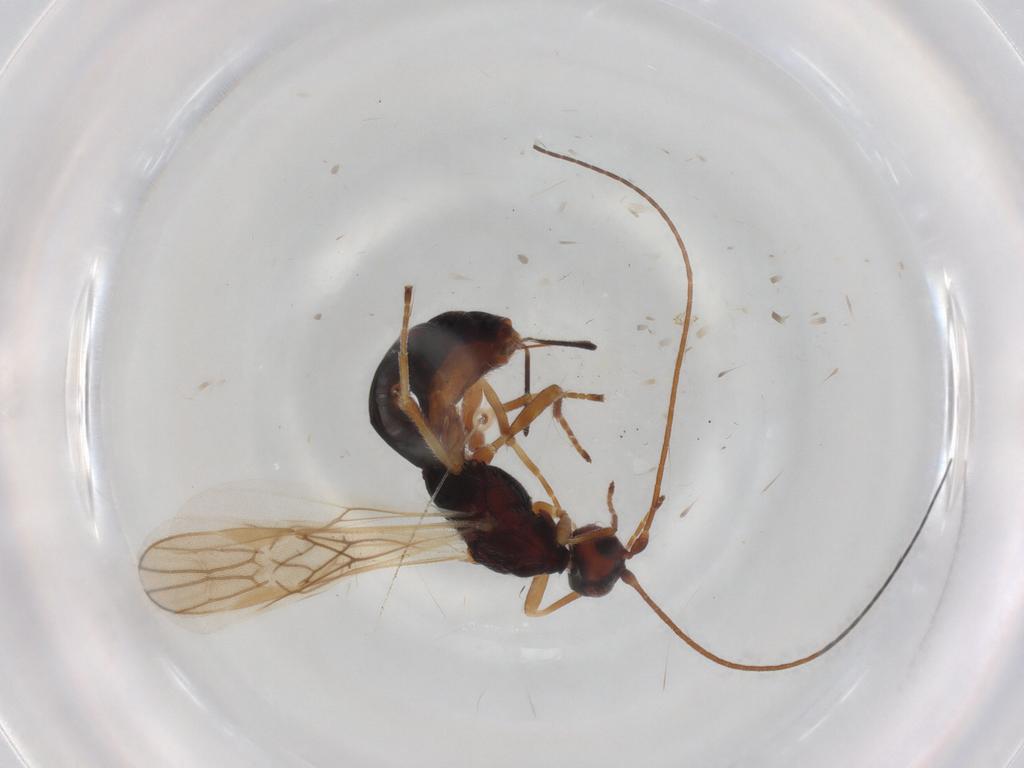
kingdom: Animalia
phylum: Arthropoda
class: Insecta
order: Hymenoptera
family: Braconidae
